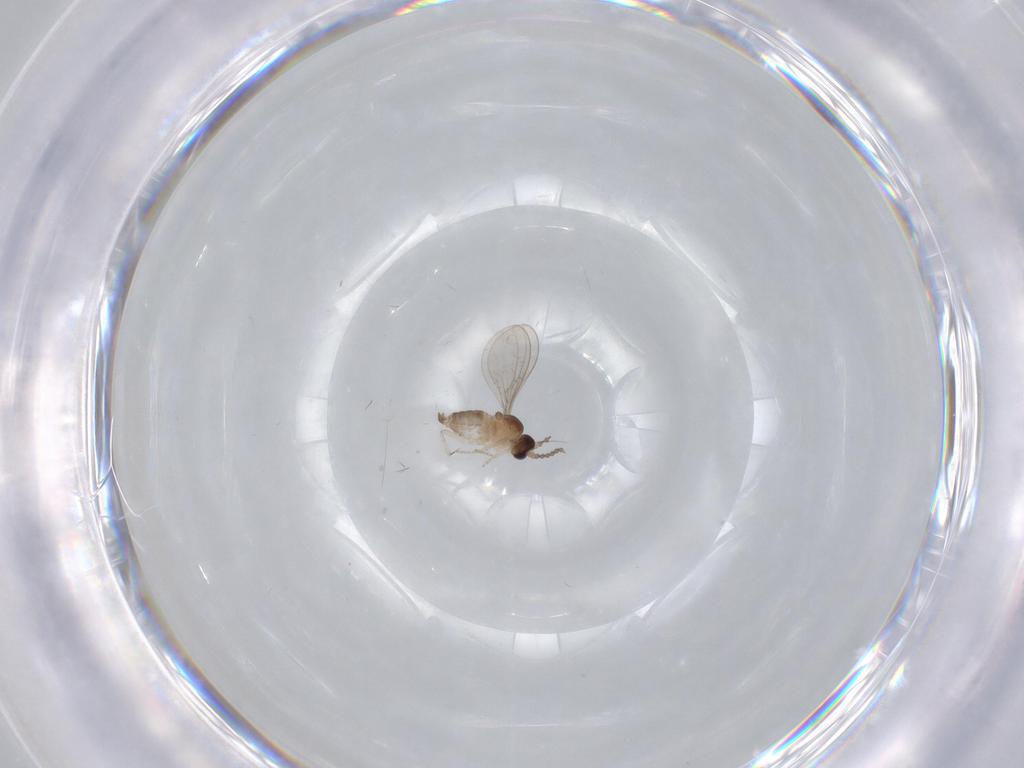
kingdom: Animalia
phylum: Arthropoda
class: Insecta
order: Diptera
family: Cecidomyiidae
